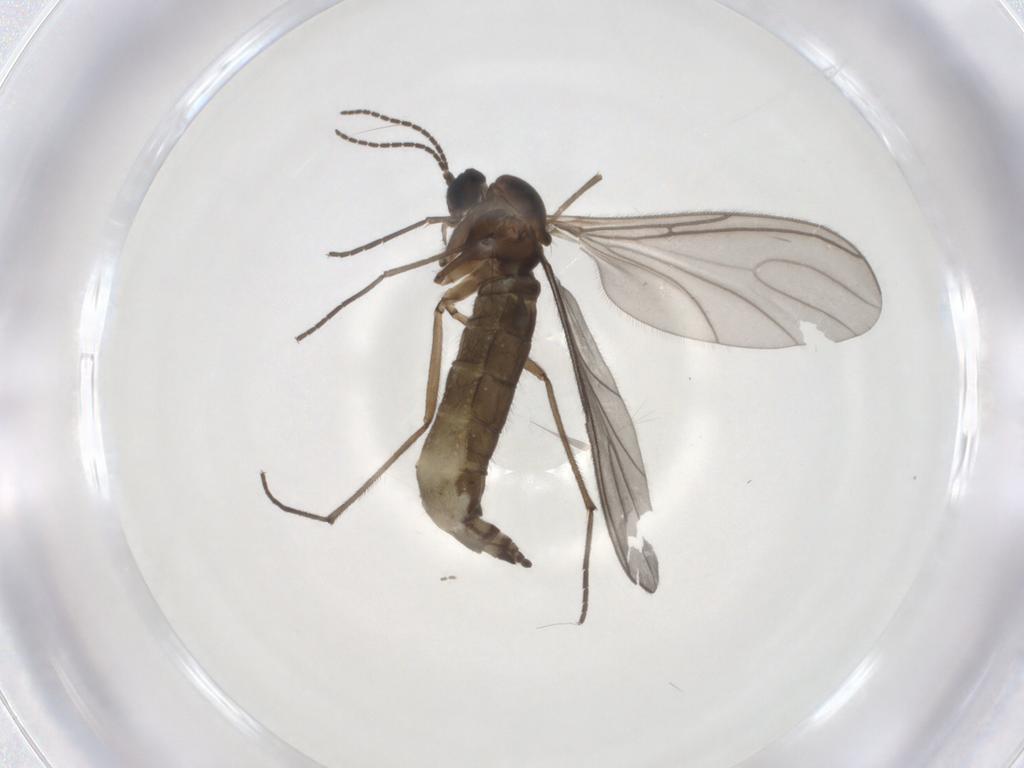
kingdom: Animalia
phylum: Arthropoda
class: Insecta
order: Diptera
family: Sciaridae
